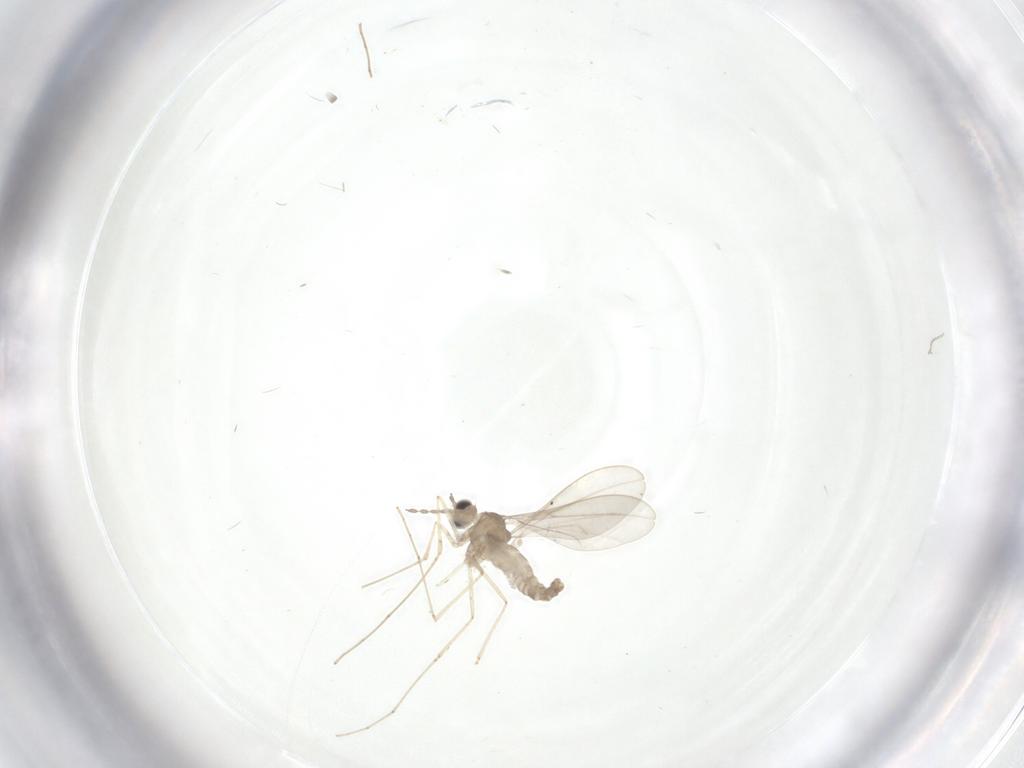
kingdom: Animalia
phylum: Arthropoda
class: Insecta
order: Diptera
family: Cecidomyiidae
